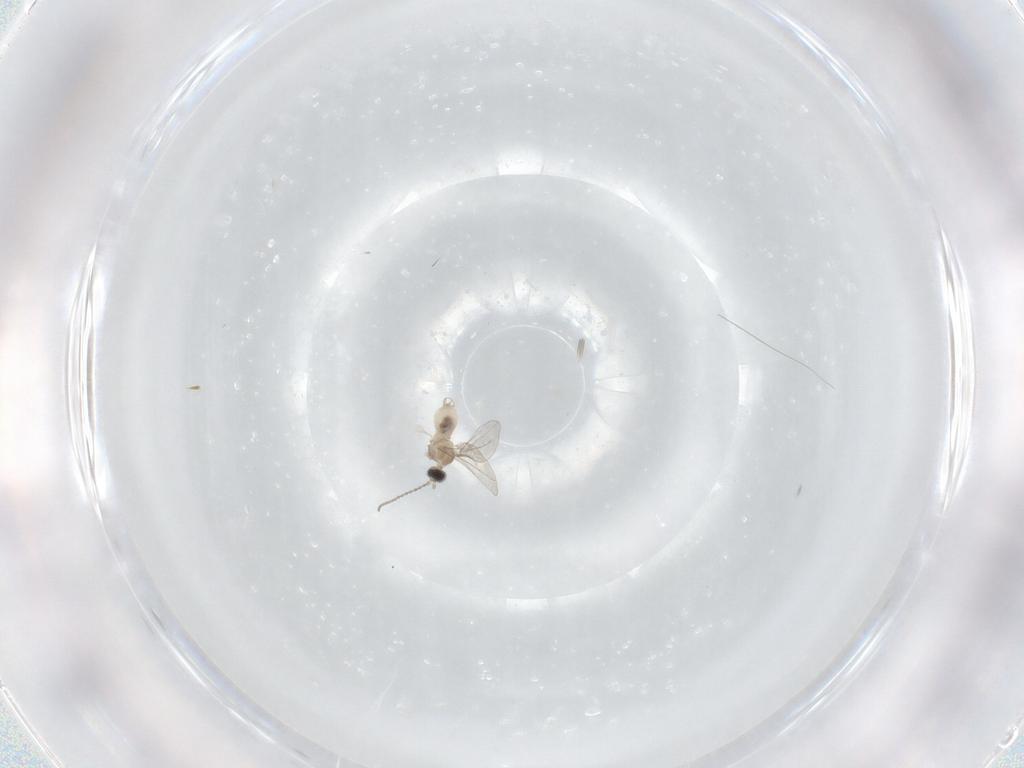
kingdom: Animalia
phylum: Arthropoda
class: Insecta
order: Diptera
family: Cecidomyiidae
